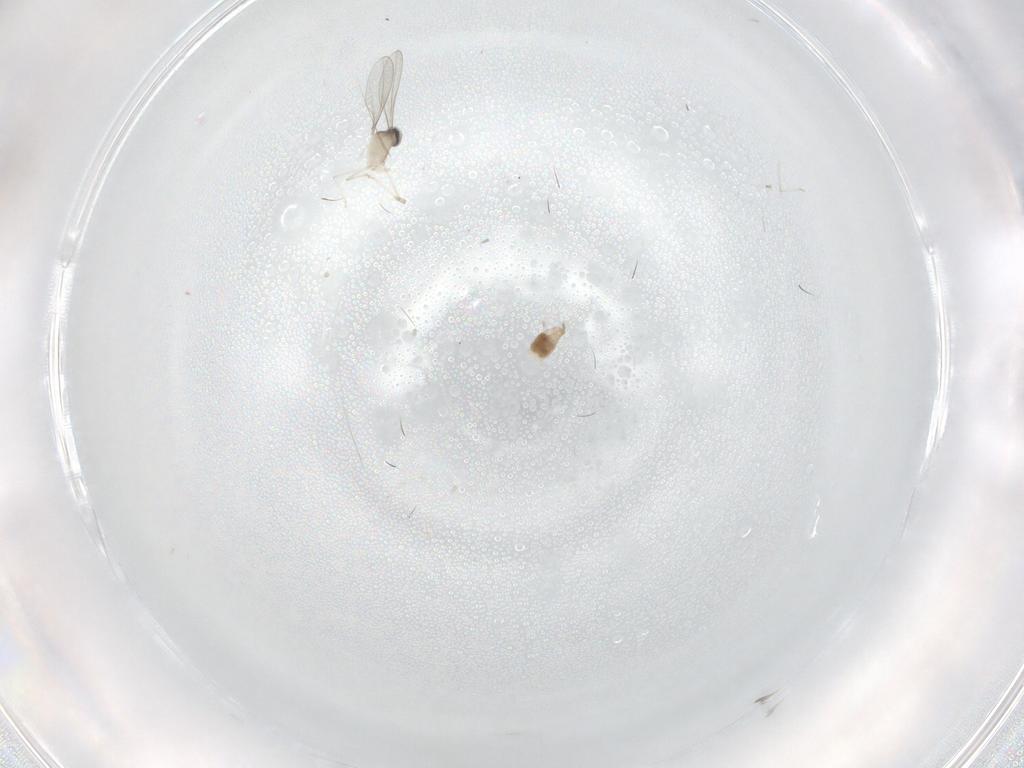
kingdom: Animalia
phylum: Arthropoda
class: Insecta
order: Diptera
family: Cecidomyiidae
